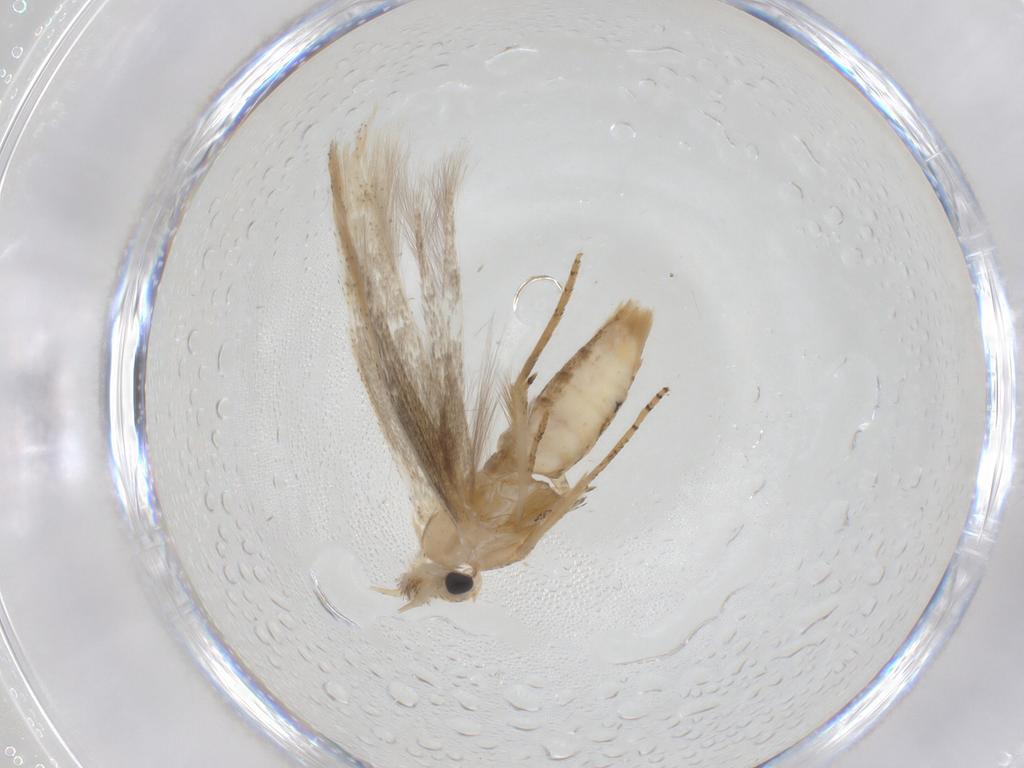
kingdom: Animalia
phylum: Arthropoda
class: Insecta
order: Lepidoptera
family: Bedelliidae
